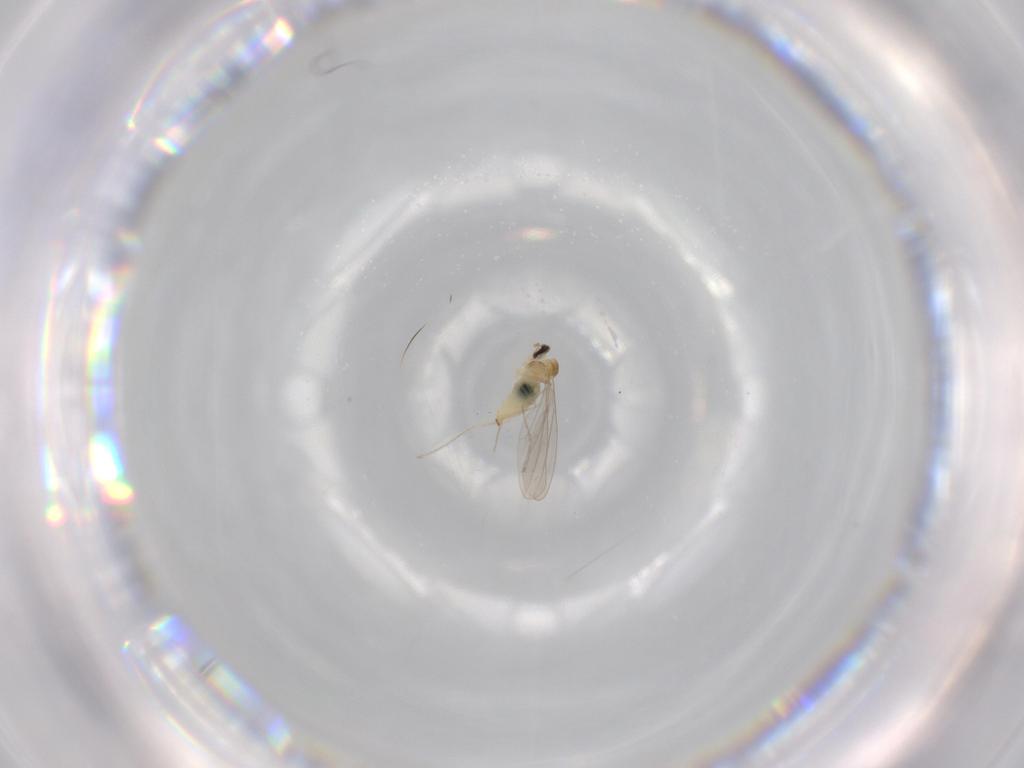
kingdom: Animalia
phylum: Arthropoda
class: Insecta
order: Diptera
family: Cecidomyiidae
